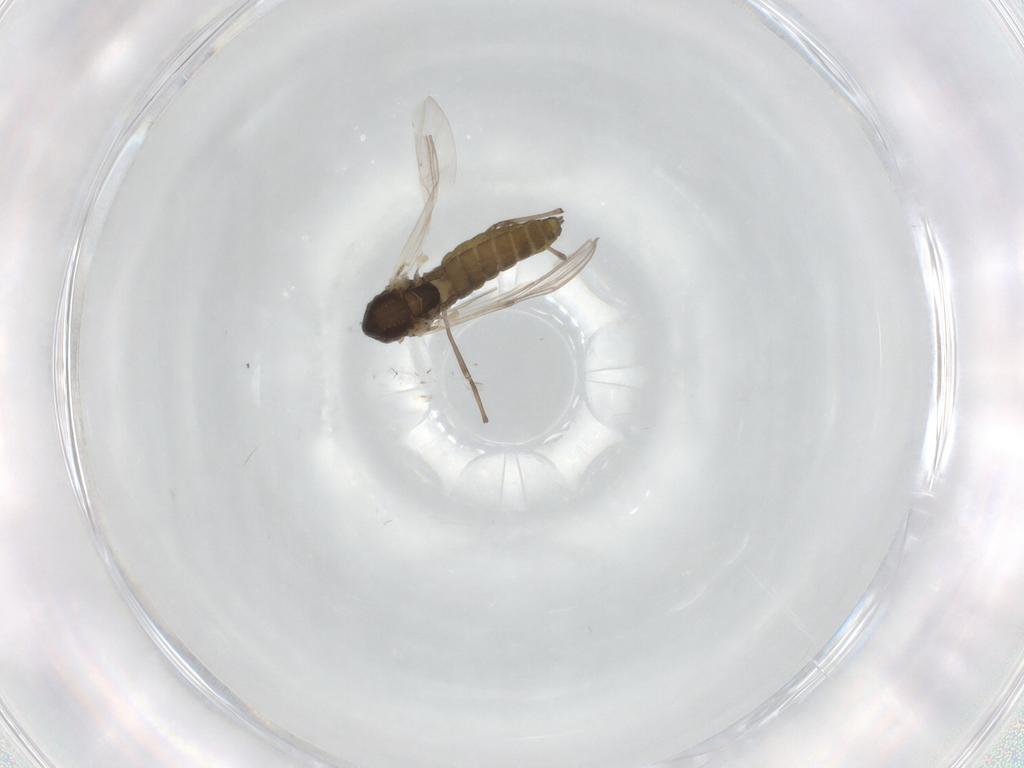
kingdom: Animalia
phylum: Arthropoda
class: Insecta
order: Diptera
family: Chironomidae
